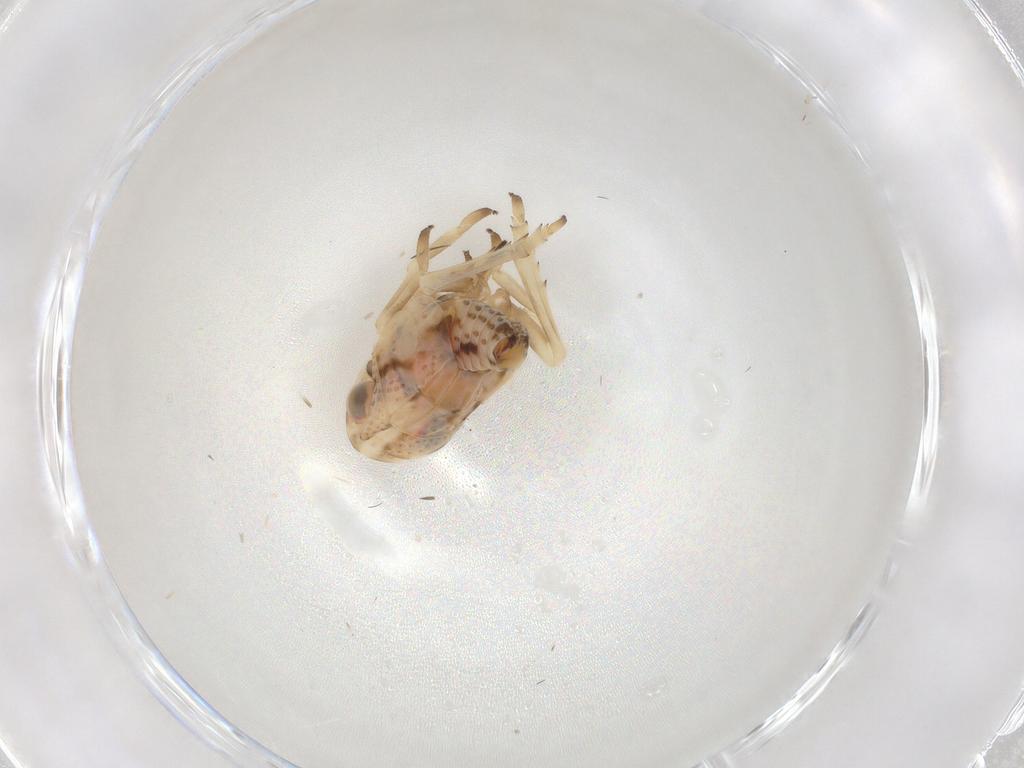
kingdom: Animalia
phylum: Arthropoda
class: Insecta
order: Hemiptera
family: Fulgoroidea_incertae_sedis
